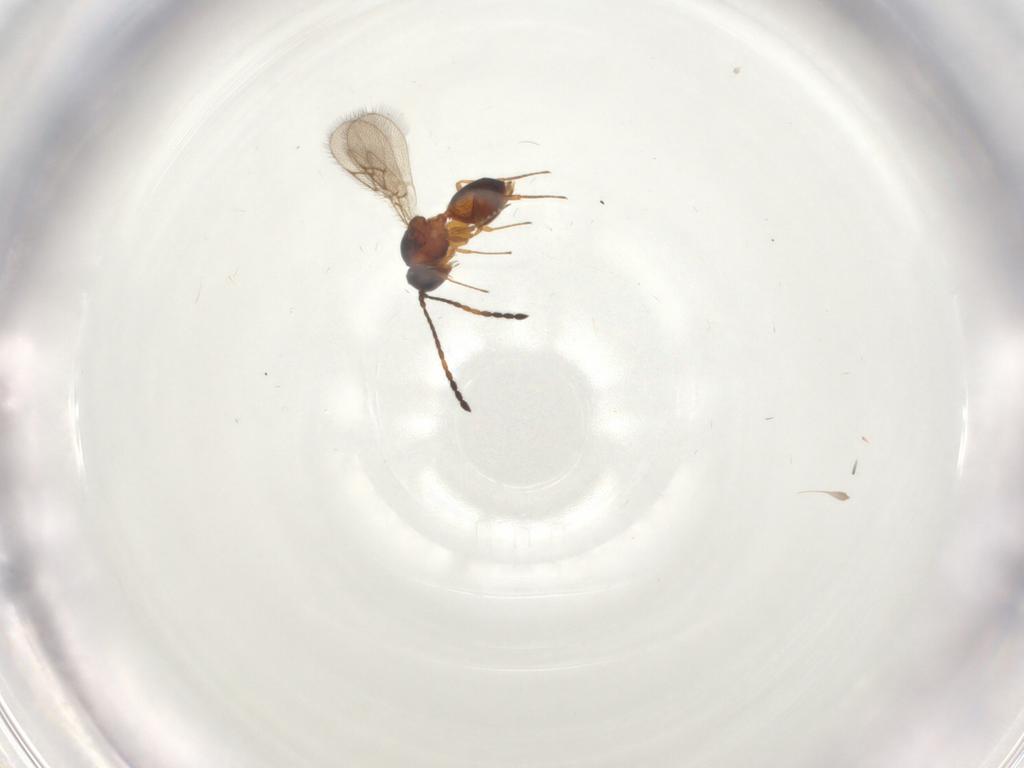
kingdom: Animalia
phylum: Arthropoda
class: Insecta
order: Hymenoptera
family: Figitidae
